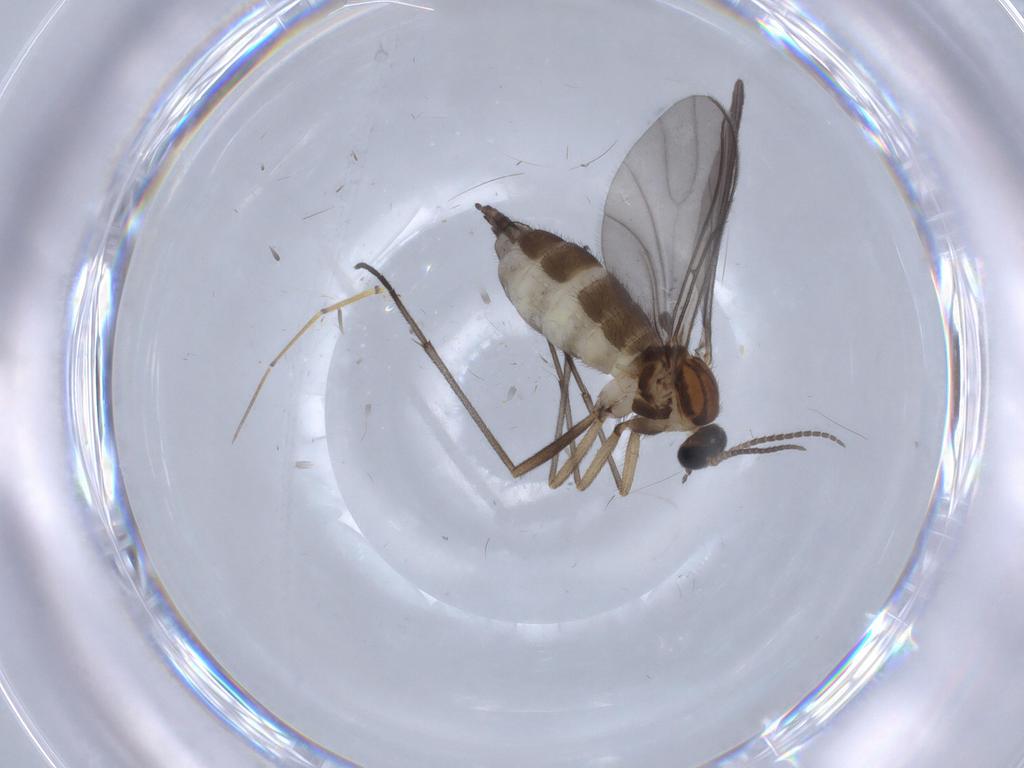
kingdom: Animalia
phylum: Arthropoda
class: Insecta
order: Diptera
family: Sciaridae
